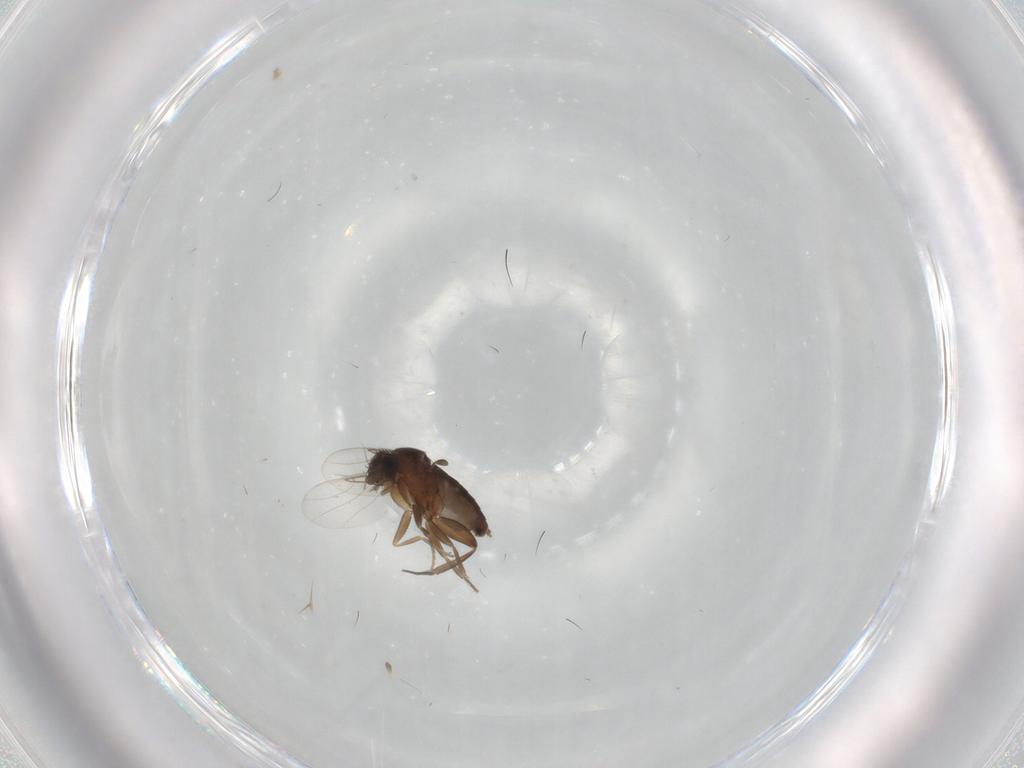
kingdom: Animalia
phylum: Arthropoda
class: Insecta
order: Diptera
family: Phoridae
